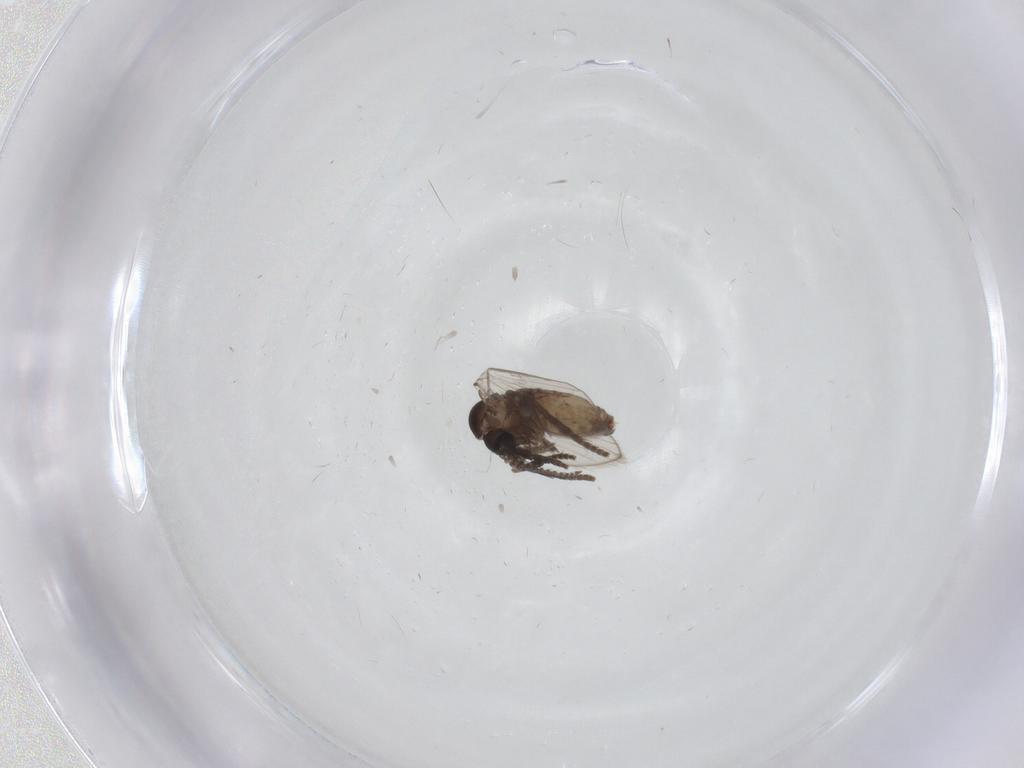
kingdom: Animalia
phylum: Arthropoda
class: Insecta
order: Diptera
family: Psychodidae
